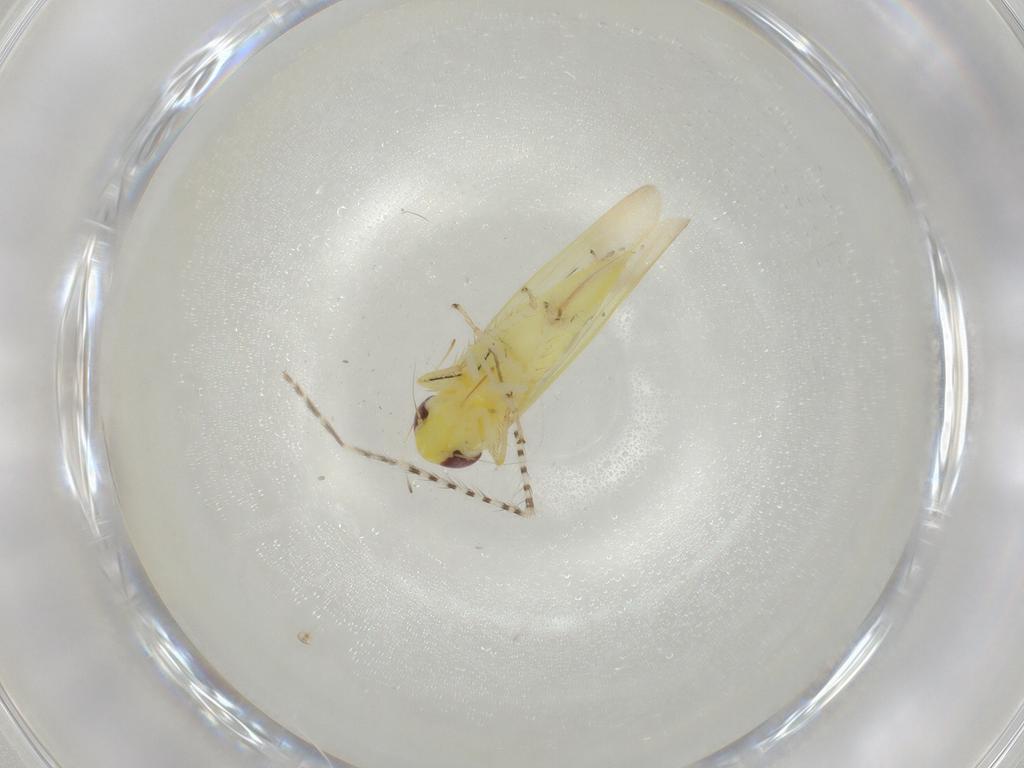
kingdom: Animalia
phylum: Arthropoda
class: Insecta
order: Hemiptera
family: Cicadellidae
